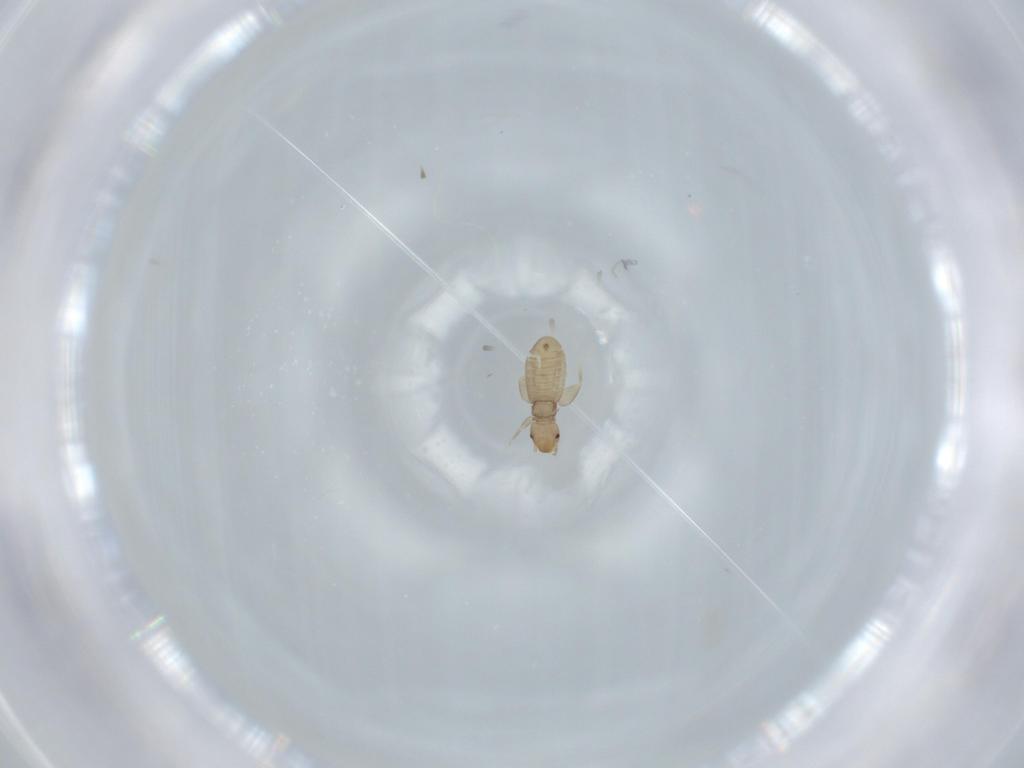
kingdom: Animalia
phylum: Arthropoda
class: Insecta
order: Psocodea
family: Liposcelididae
